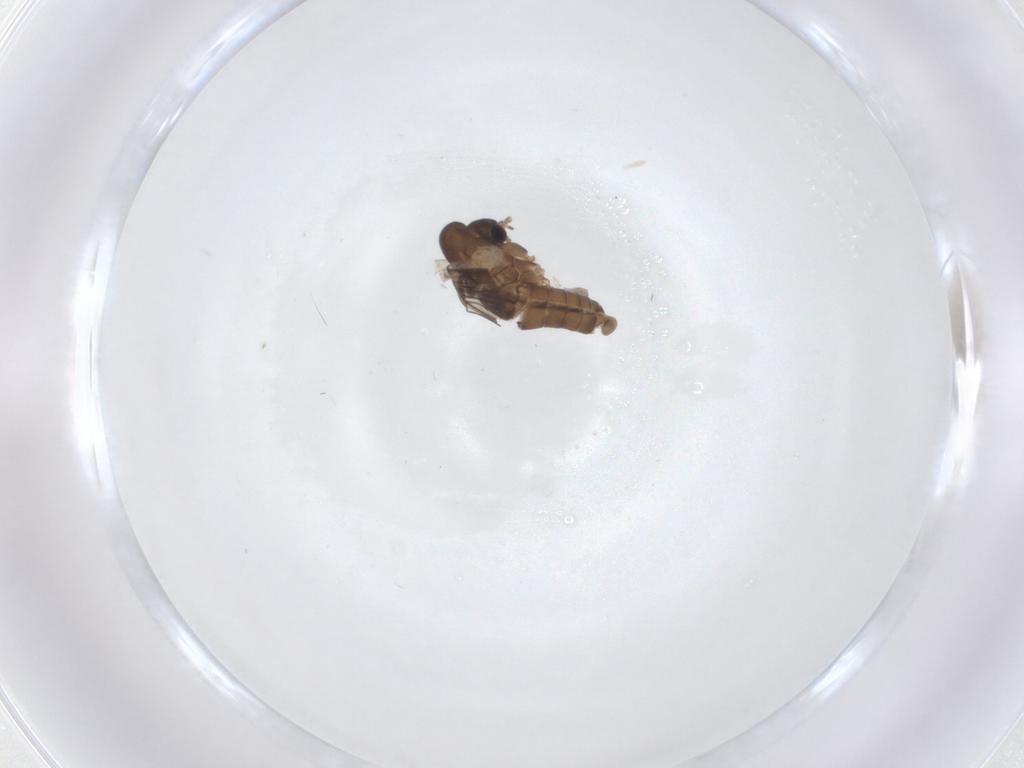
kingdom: Animalia
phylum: Arthropoda
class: Insecta
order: Diptera
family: Psychodidae
